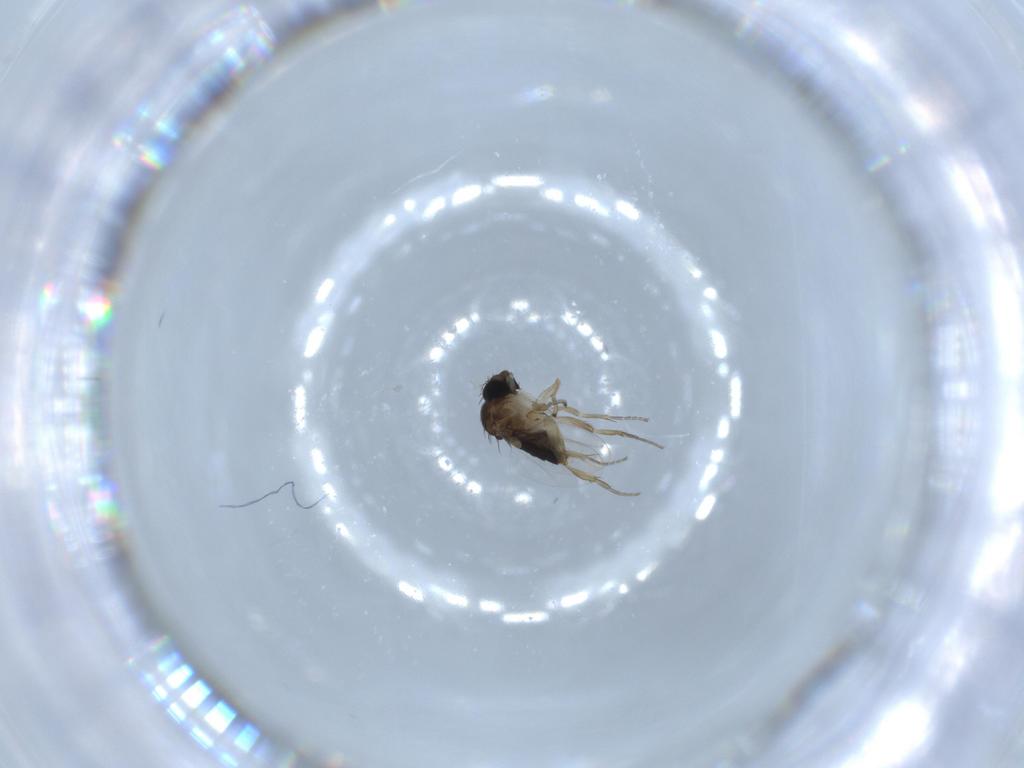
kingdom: Animalia
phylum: Arthropoda
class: Insecta
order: Diptera
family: Phoridae
